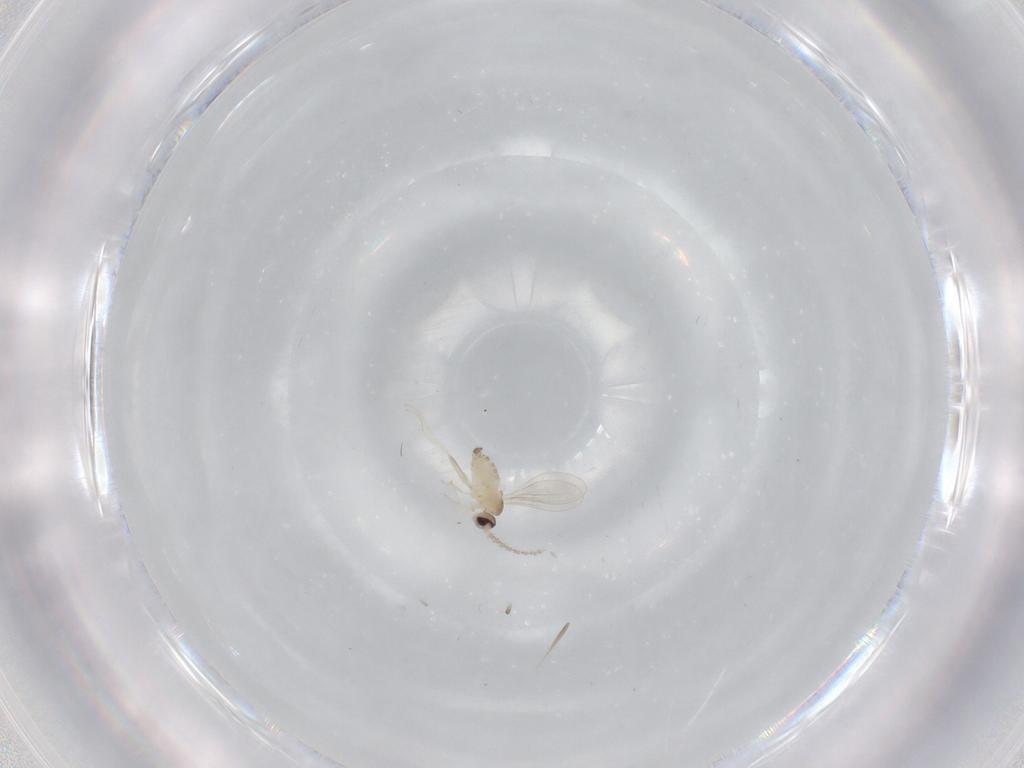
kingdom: Animalia
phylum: Arthropoda
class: Insecta
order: Diptera
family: Cecidomyiidae
